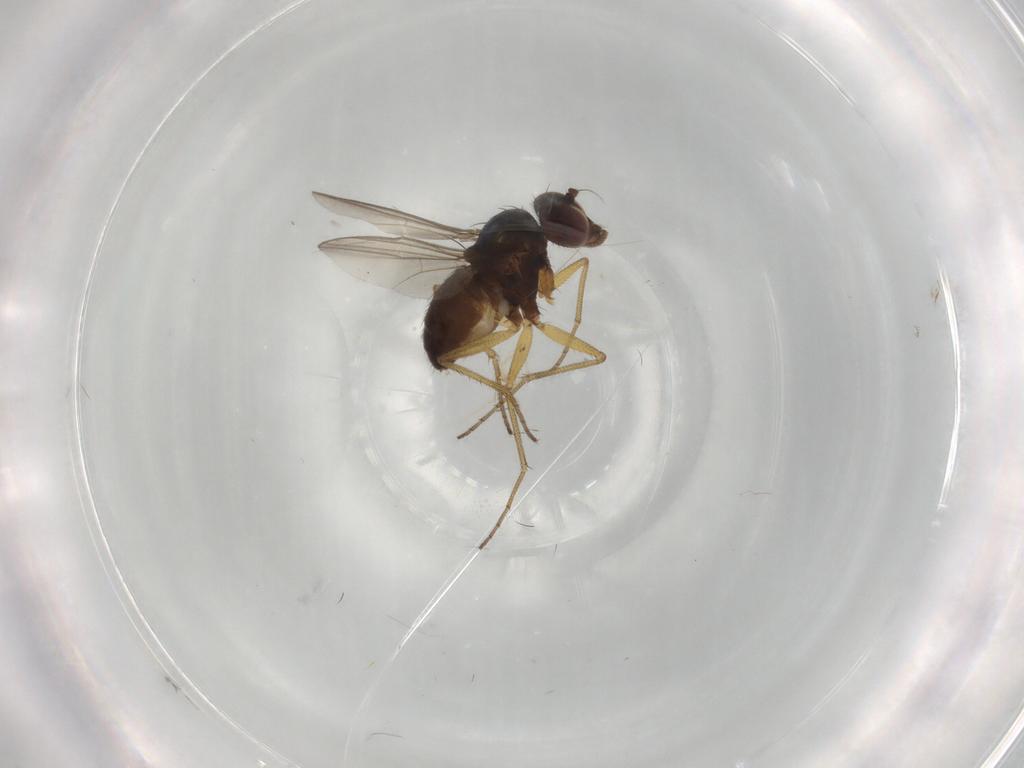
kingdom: Animalia
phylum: Arthropoda
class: Insecta
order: Diptera
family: Dolichopodidae
